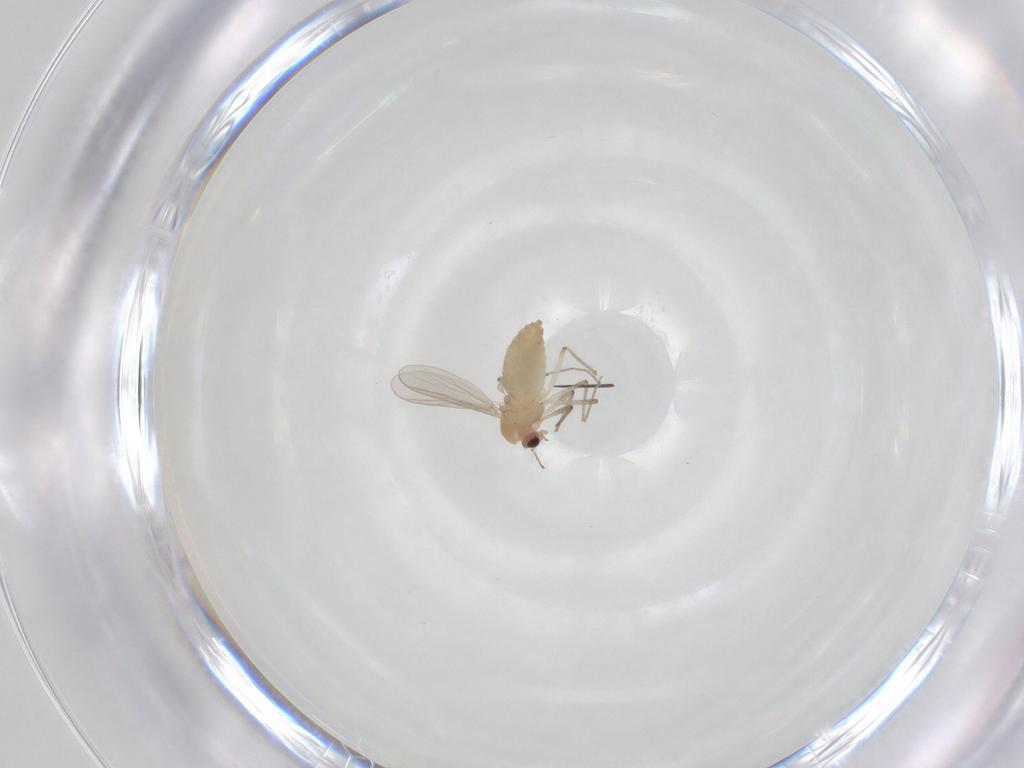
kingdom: Animalia
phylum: Arthropoda
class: Insecta
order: Diptera
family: Chironomidae
